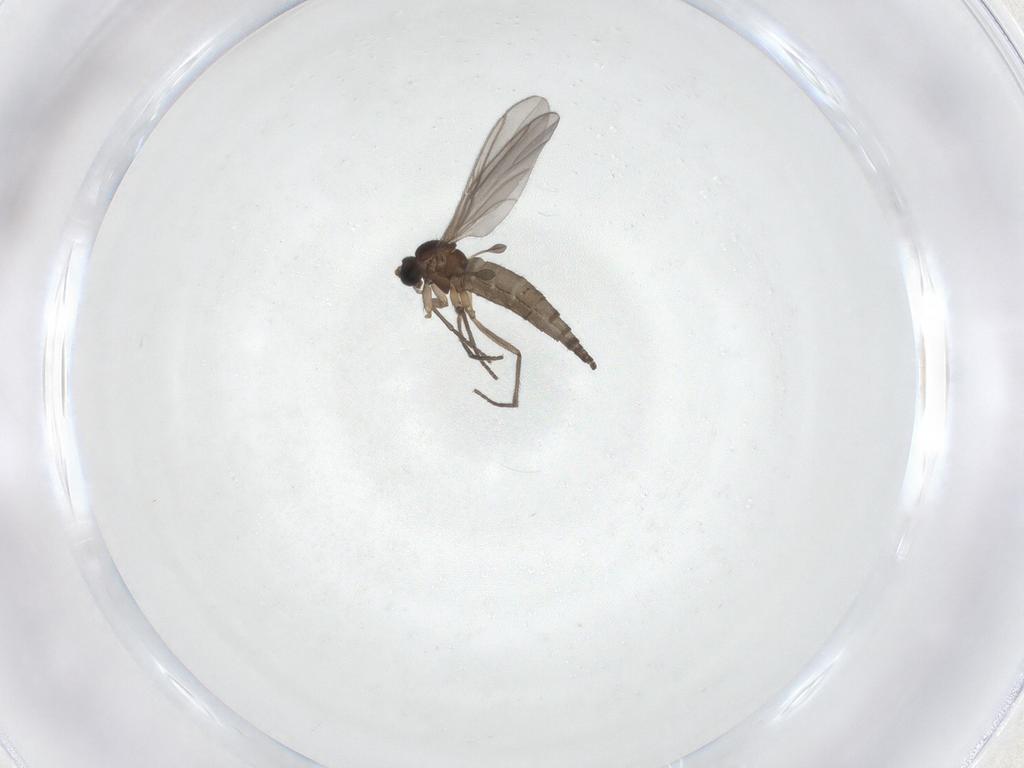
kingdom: Animalia
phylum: Arthropoda
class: Insecta
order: Diptera
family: Sciaridae
